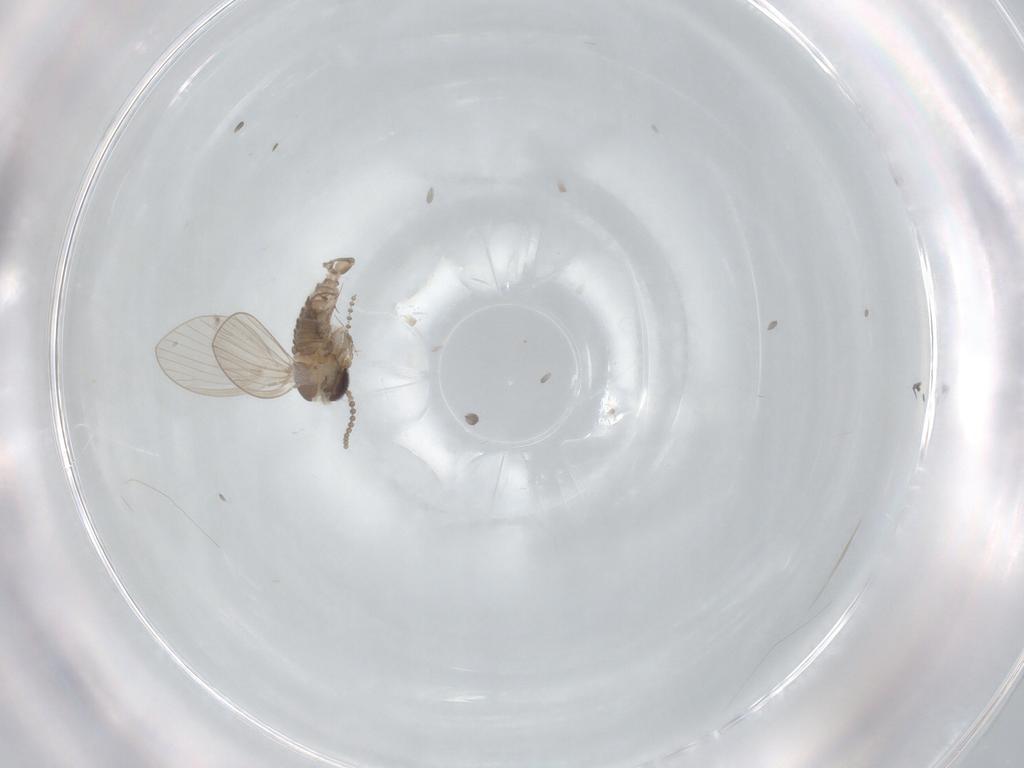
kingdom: Animalia
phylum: Arthropoda
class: Insecta
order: Diptera
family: Psychodidae
